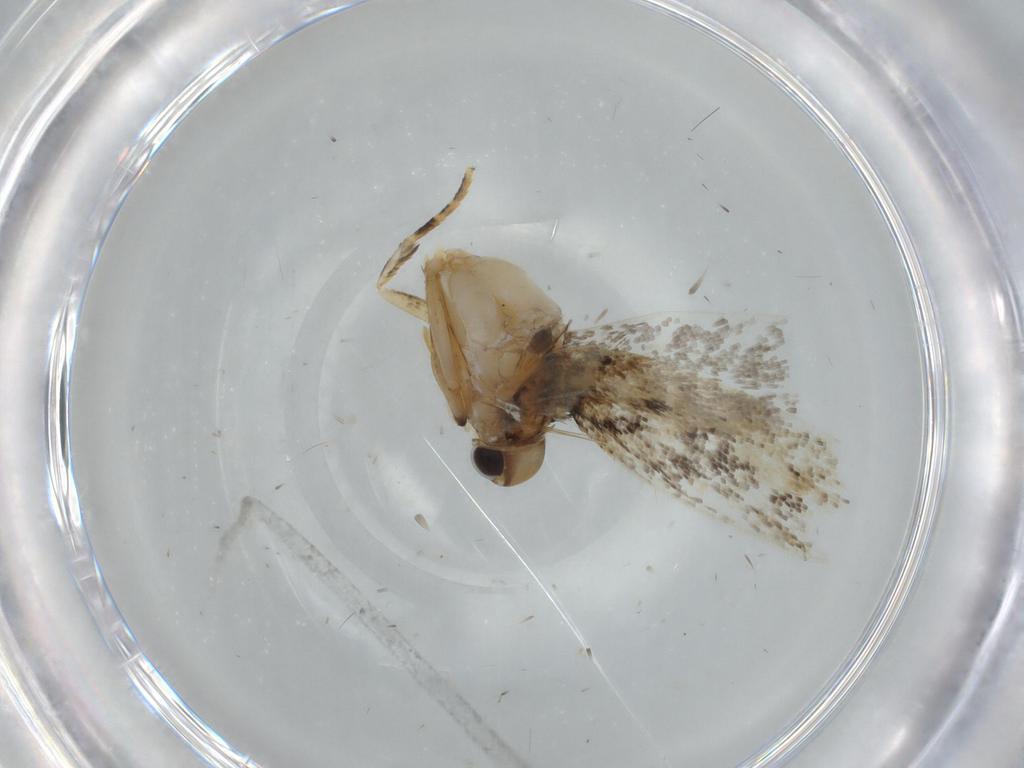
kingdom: Animalia
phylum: Arthropoda
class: Insecta
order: Lepidoptera
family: Gelechiidae
